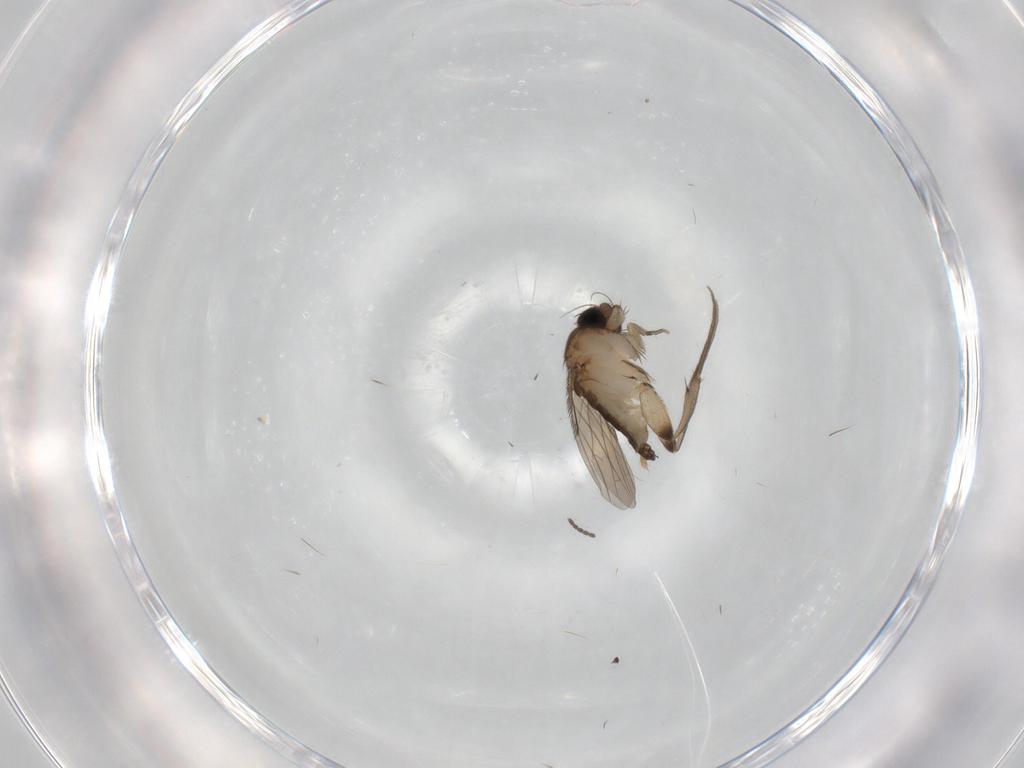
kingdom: Animalia
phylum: Arthropoda
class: Insecta
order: Diptera
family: Phoridae
